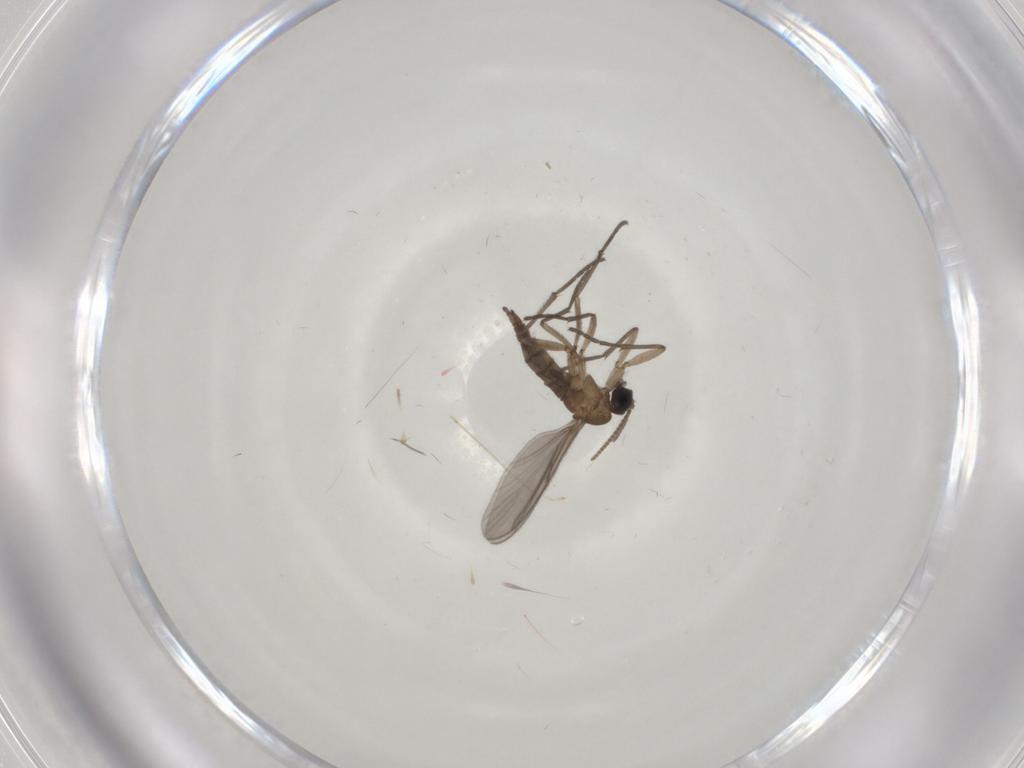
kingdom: Animalia
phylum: Arthropoda
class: Insecta
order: Diptera
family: Sciaridae
